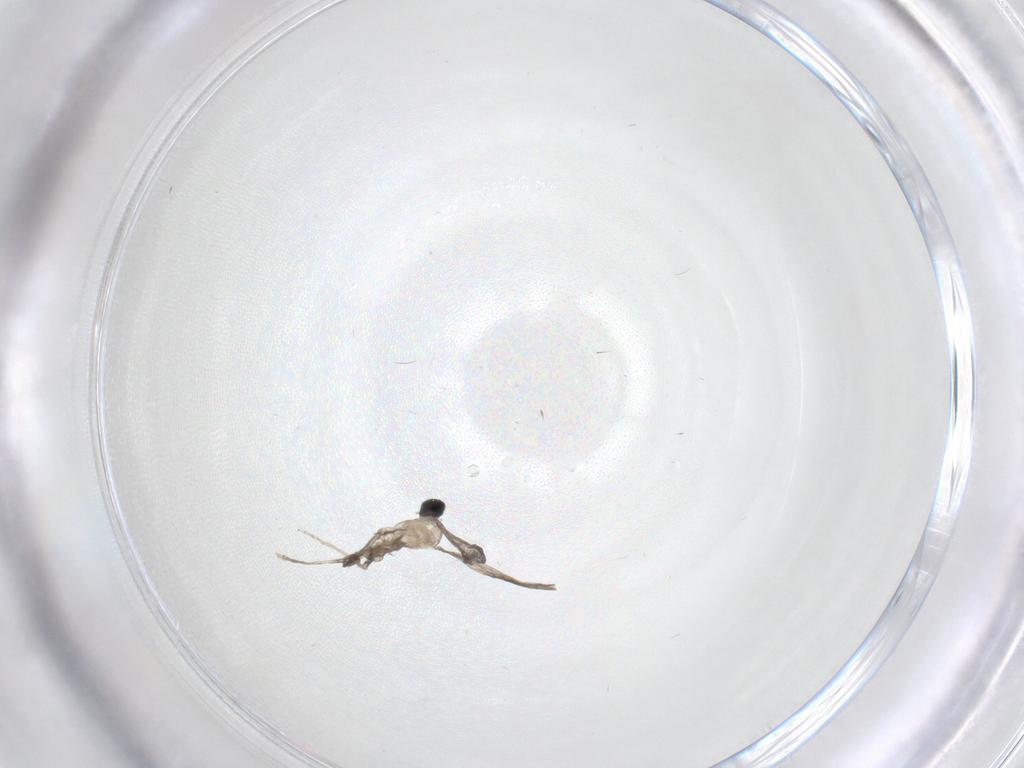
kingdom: Animalia
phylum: Arthropoda
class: Insecta
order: Diptera
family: Cecidomyiidae
